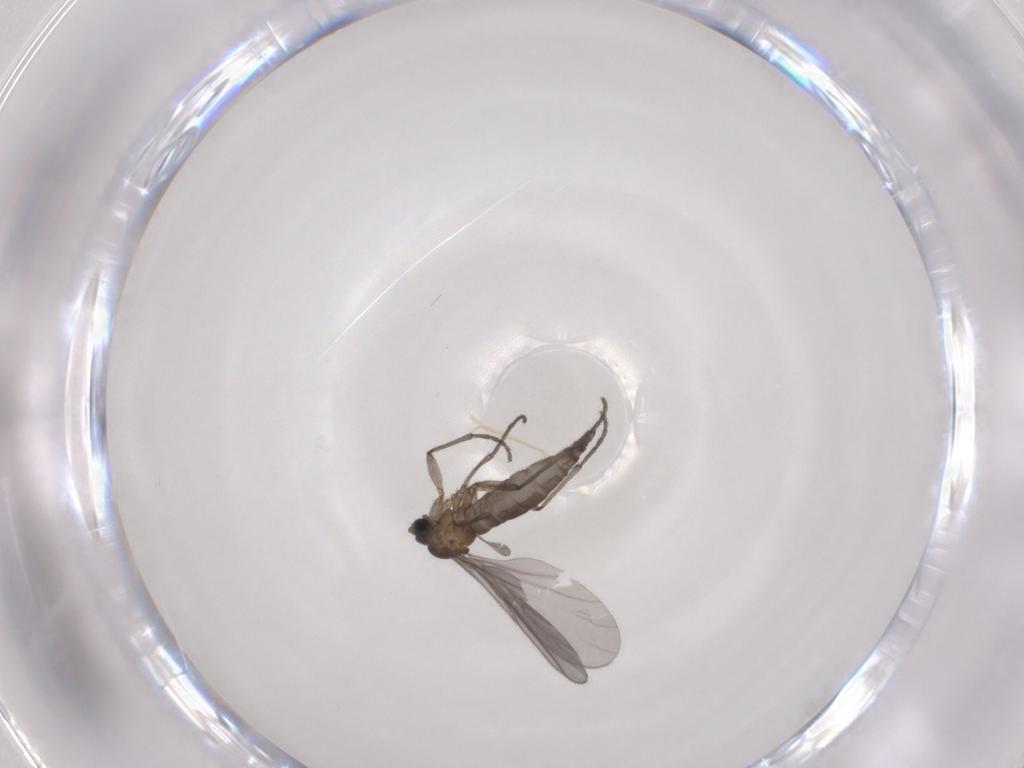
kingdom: Animalia
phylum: Arthropoda
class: Insecta
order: Diptera
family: Sciaridae
